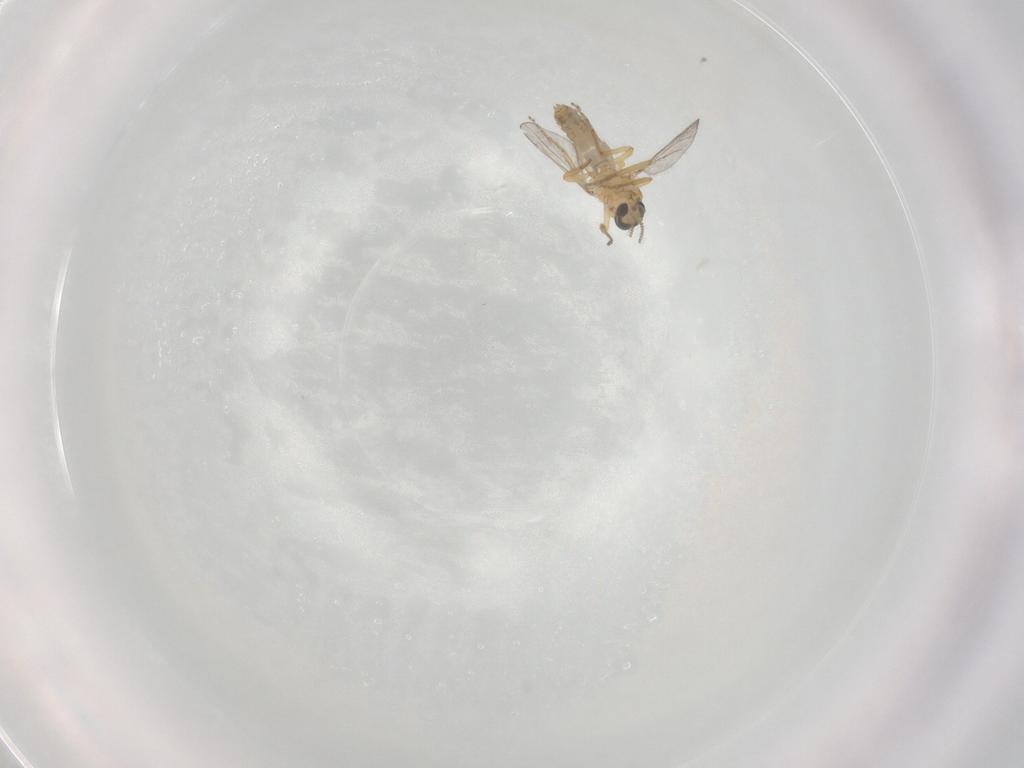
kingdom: Animalia
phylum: Arthropoda
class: Insecta
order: Diptera
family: Ceratopogonidae
